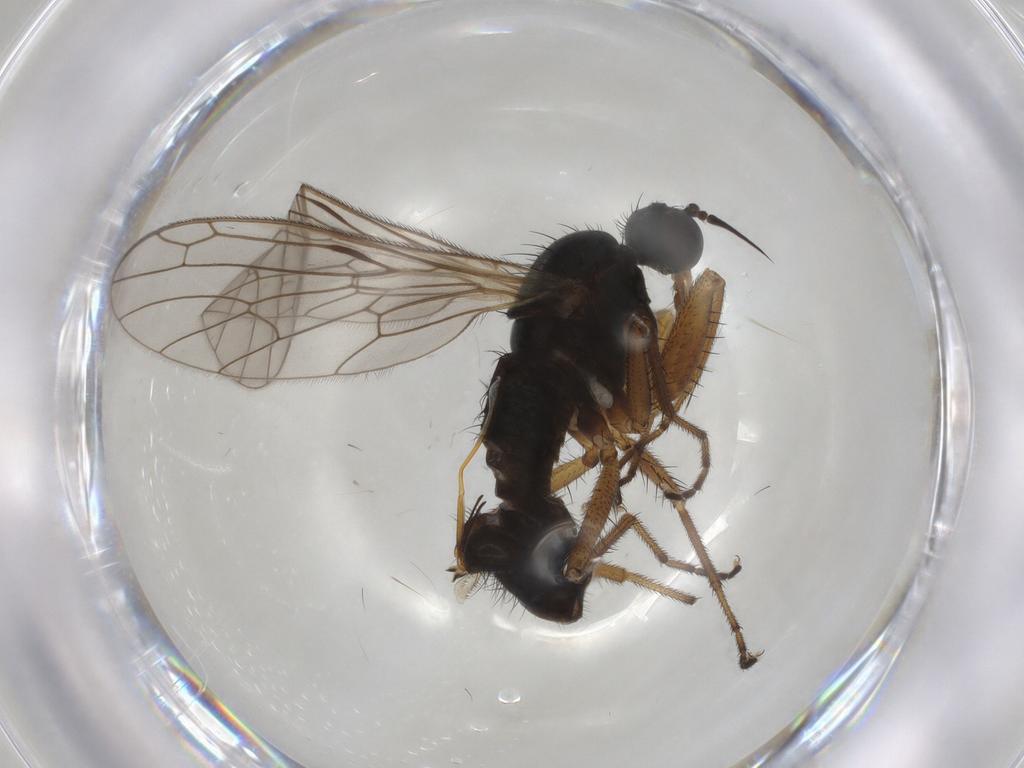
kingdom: Animalia
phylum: Arthropoda
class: Insecta
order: Diptera
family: Empididae
